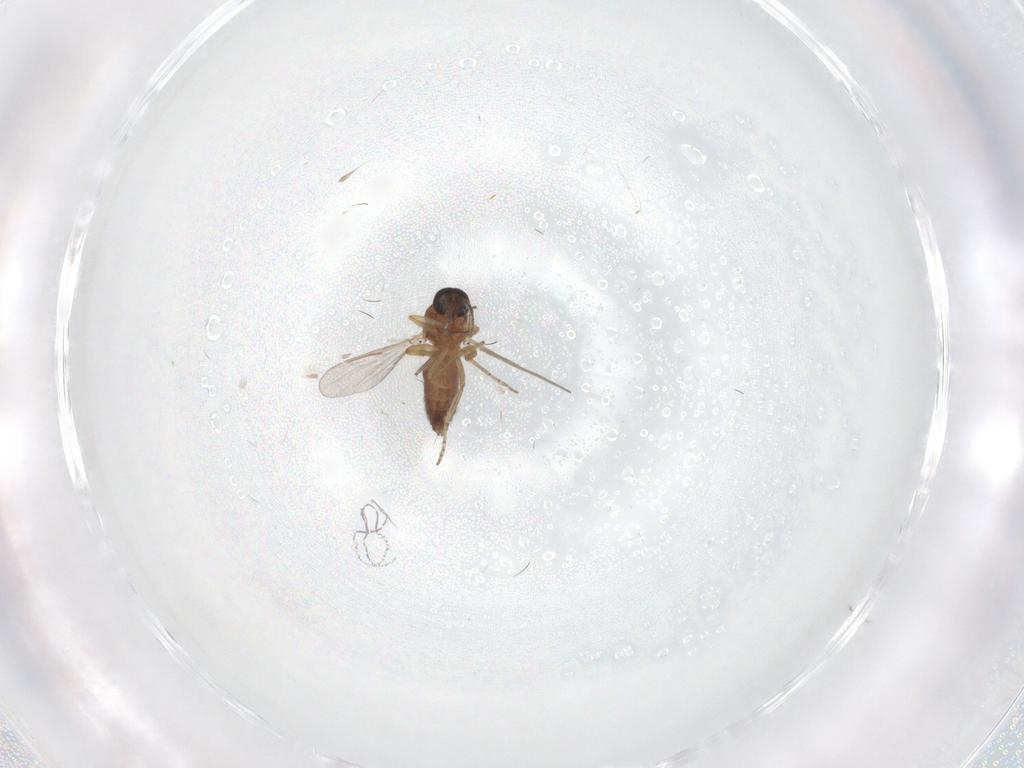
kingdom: Animalia
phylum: Arthropoda
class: Insecta
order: Diptera
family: Ceratopogonidae
